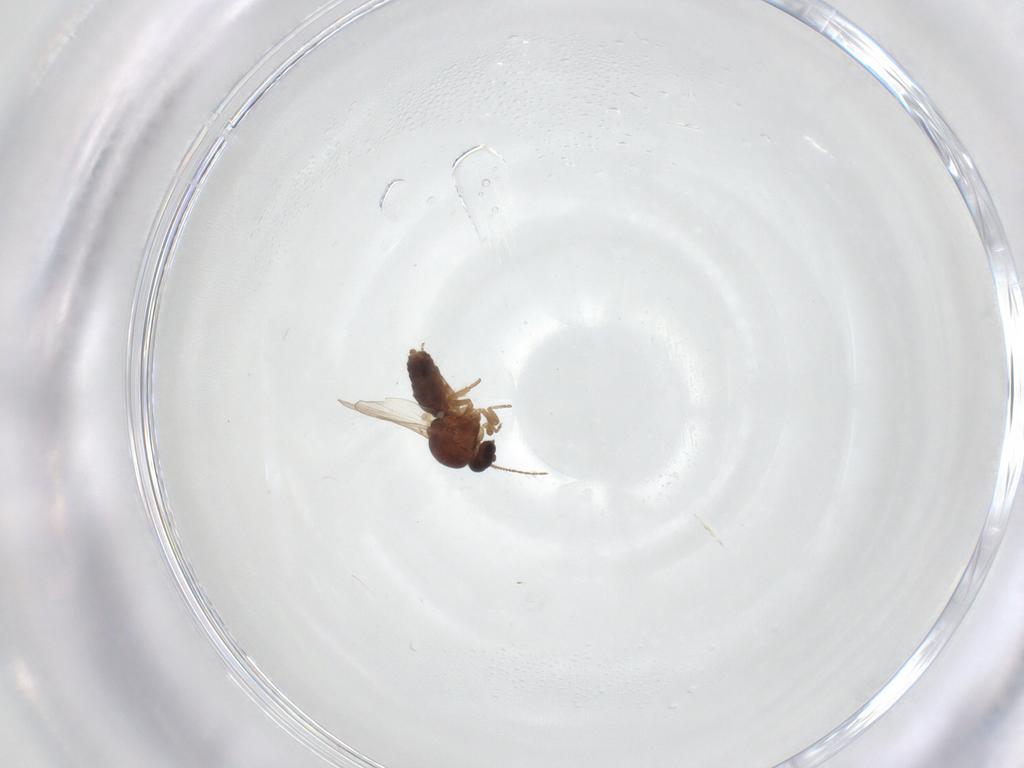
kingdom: Animalia
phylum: Arthropoda
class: Insecta
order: Diptera
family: Ceratopogonidae
